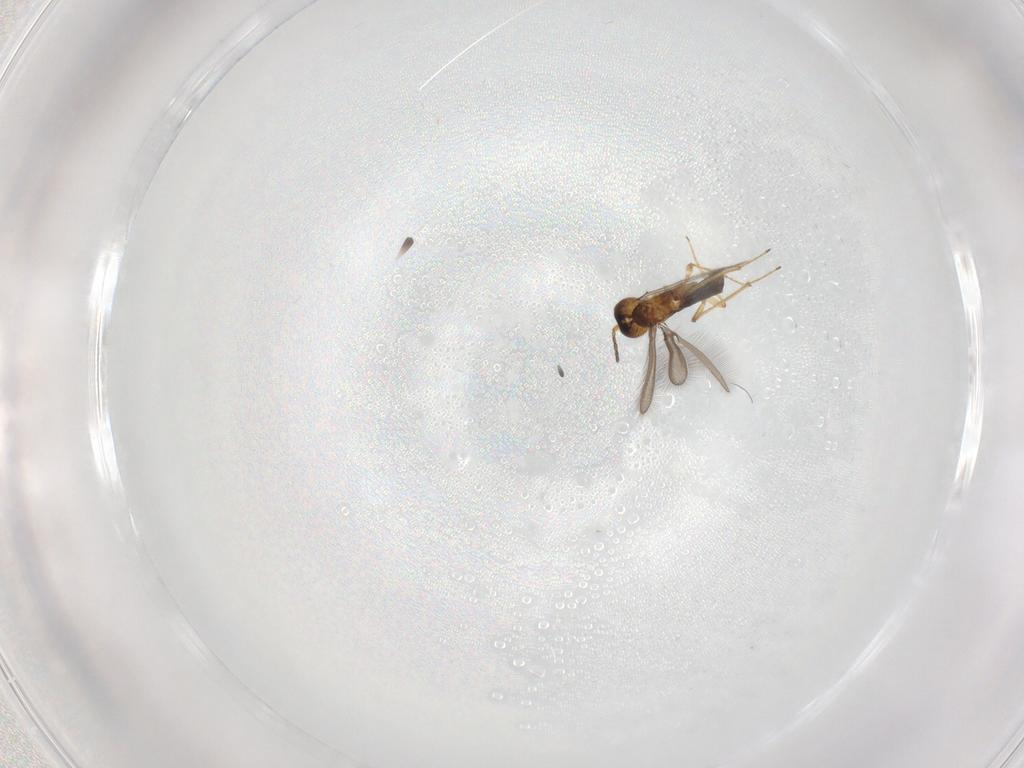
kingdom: Animalia
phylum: Arthropoda
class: Insecta
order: Hymenoptera
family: Mymaridae
